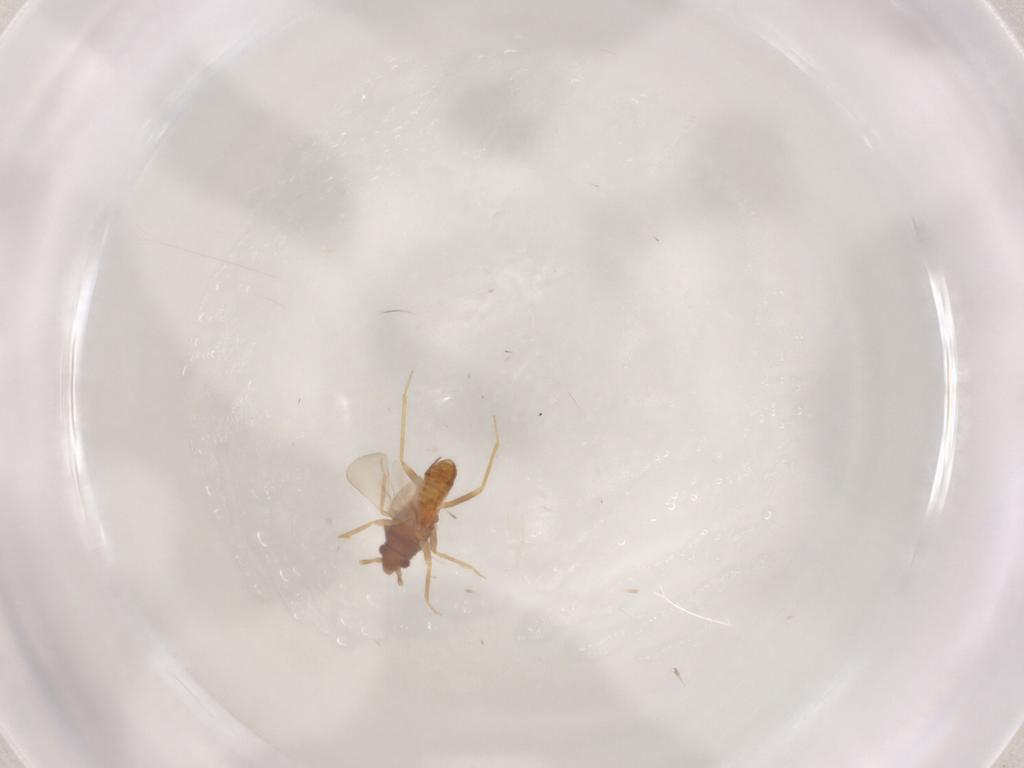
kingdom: Animalia
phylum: Arthropoda
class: Insecta
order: Hemiptera
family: Ceratocombidae
